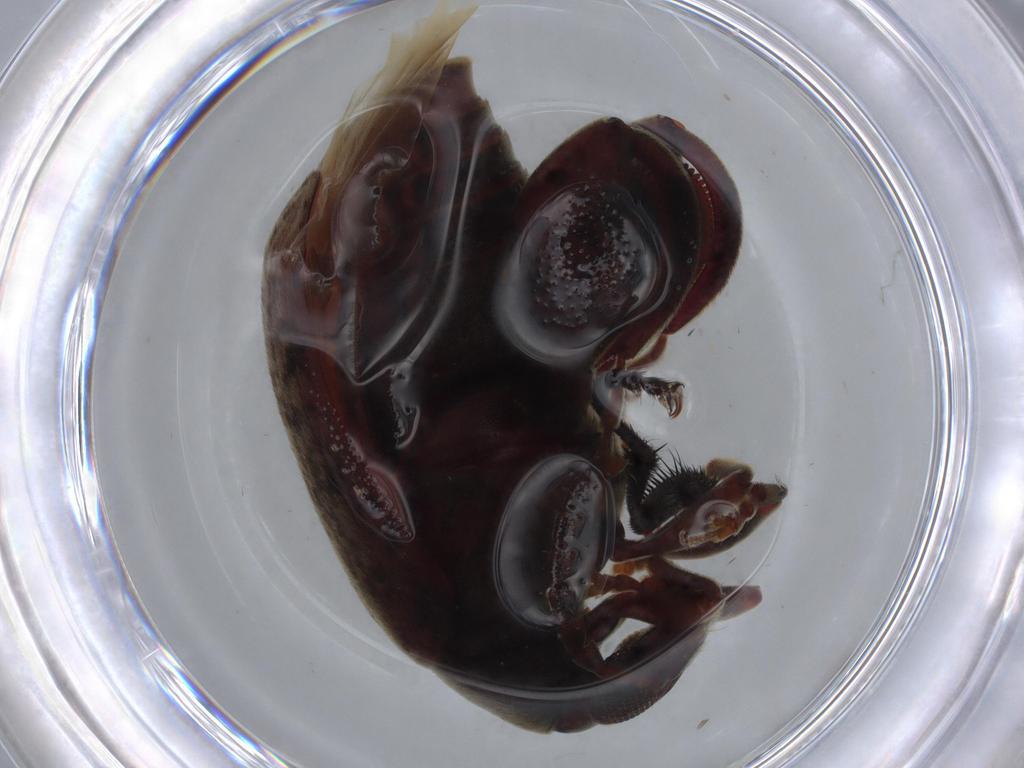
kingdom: Animalia
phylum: Arthropoda
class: Insecta
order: Coleoptera
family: Chrysomelidae
